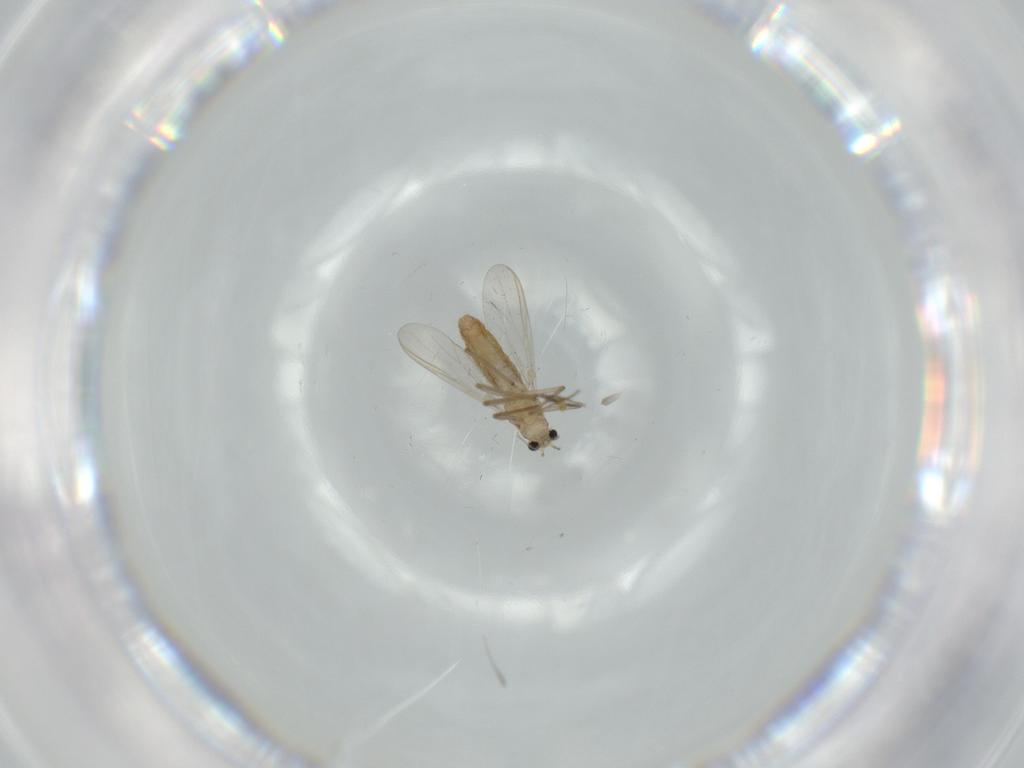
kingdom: Animalia
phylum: Arthropoda
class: Insecta
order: Diptera
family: Chironomidae
